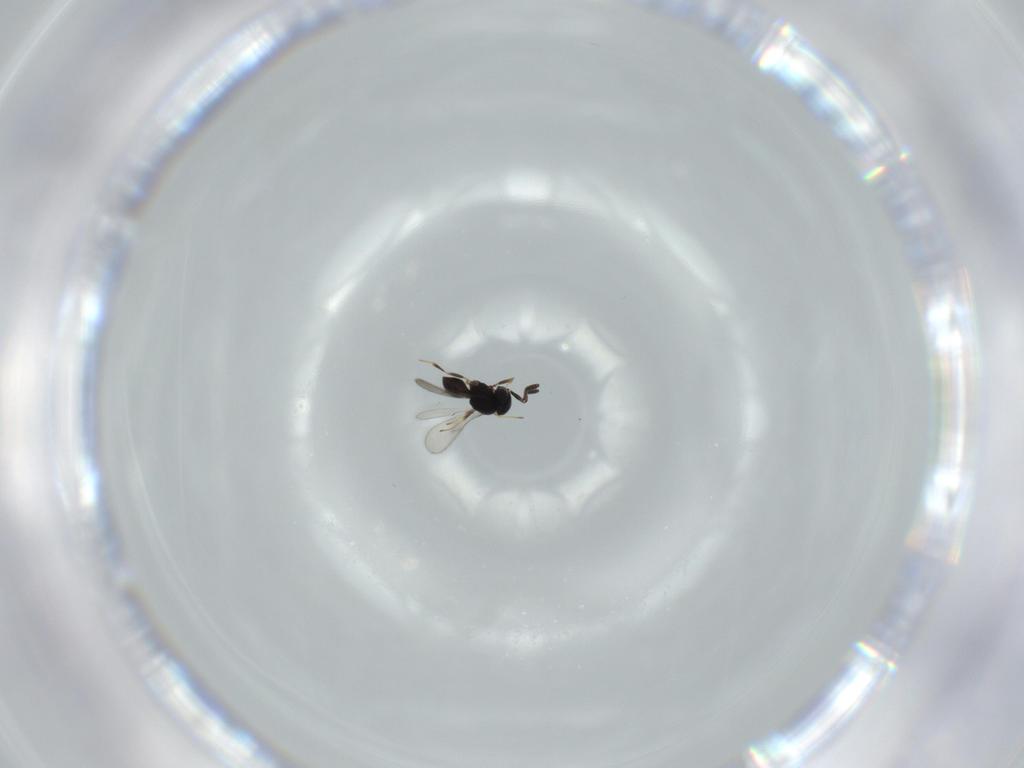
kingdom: Animalia
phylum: Arthropoda
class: Insecta
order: Hymenoptera
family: Scelionidae
